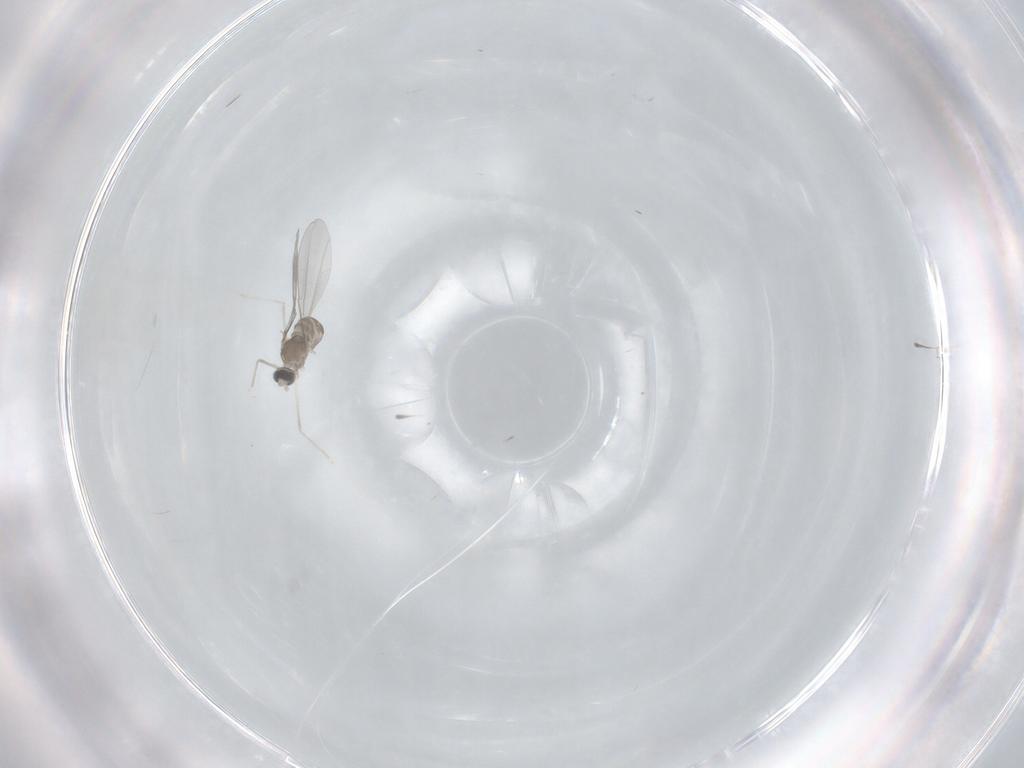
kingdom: Animalia
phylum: Arthropoda
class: Insecta
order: Diptera
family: Cecidomyiidae
